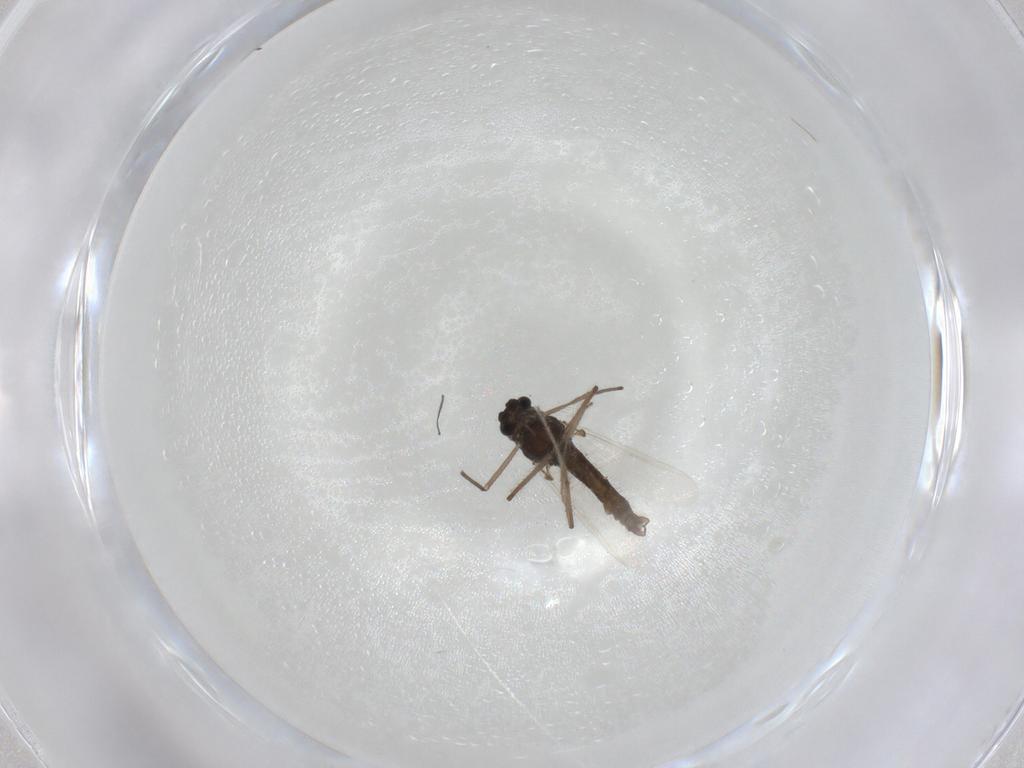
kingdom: Animalia
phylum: Arthropoda
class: Insecta
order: Diptera
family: Chironomidae
